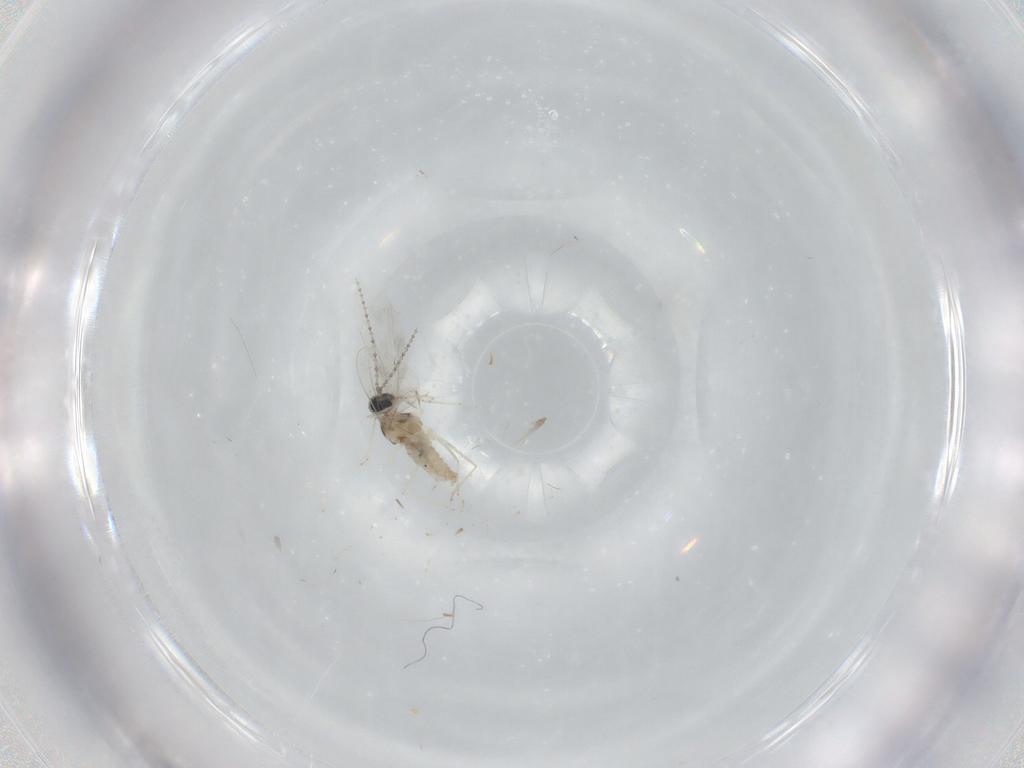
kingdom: Animalia
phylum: Arthropoda
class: Insecta
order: Diptera
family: Cecidomyiidae
